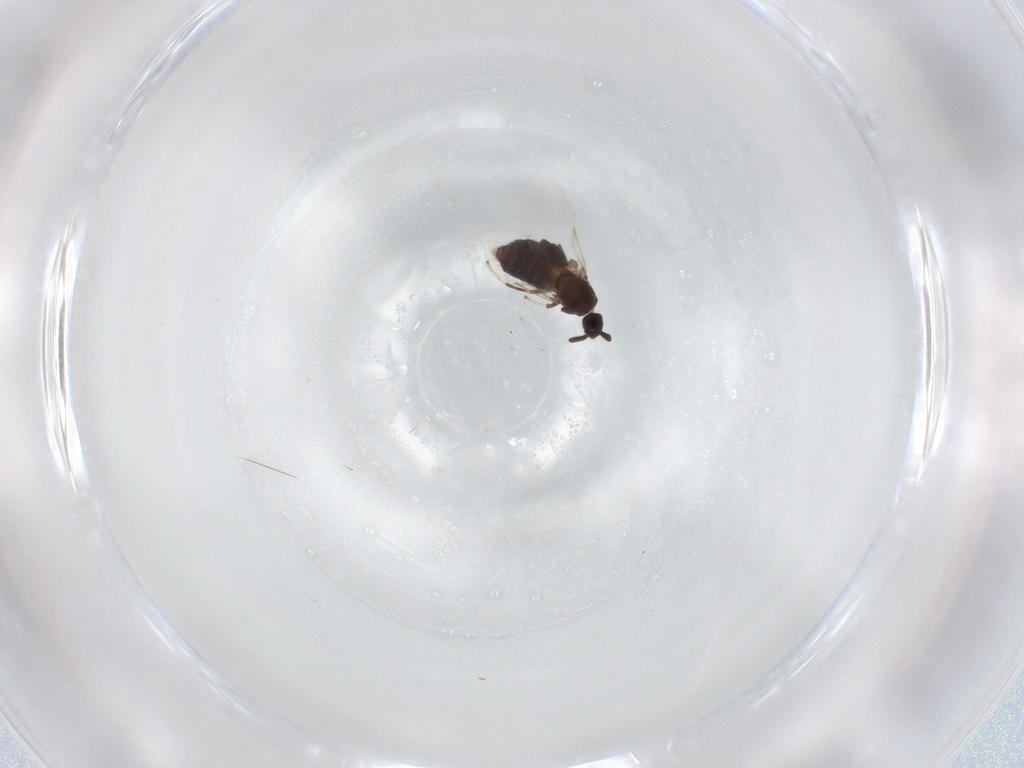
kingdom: Animalia
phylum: Arthropoda
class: Insecta
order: Diptera
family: Scatopsidae
